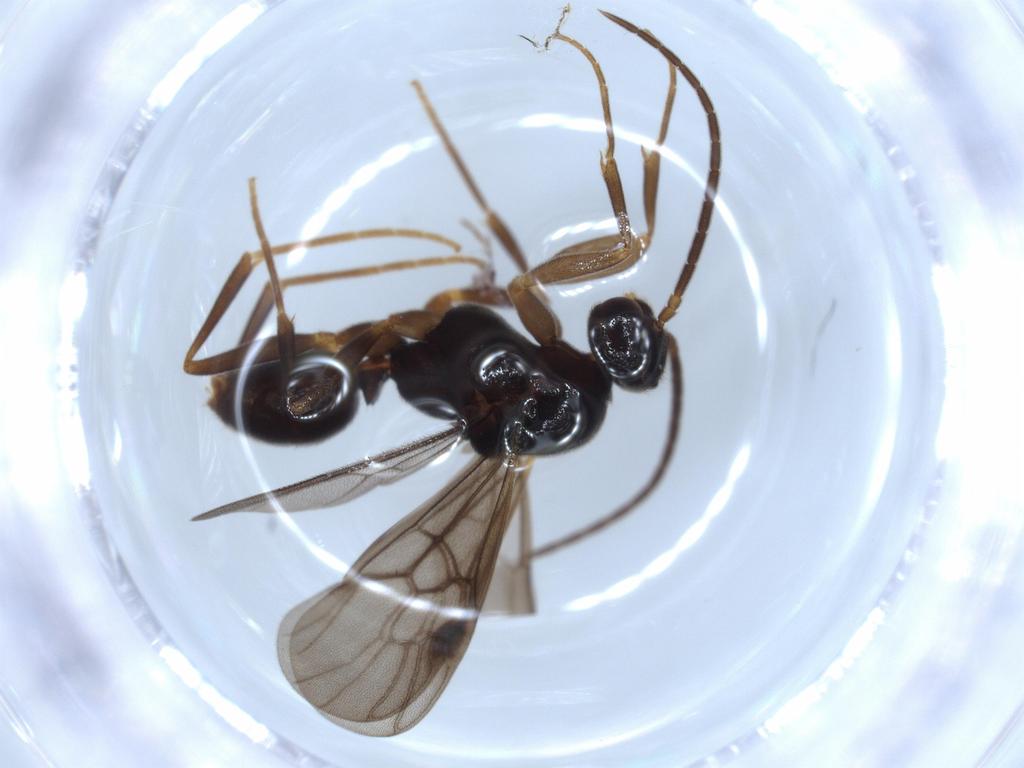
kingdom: Animalia
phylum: Arthropoda
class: Insecta
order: Hymenoptera
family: Formicidae
